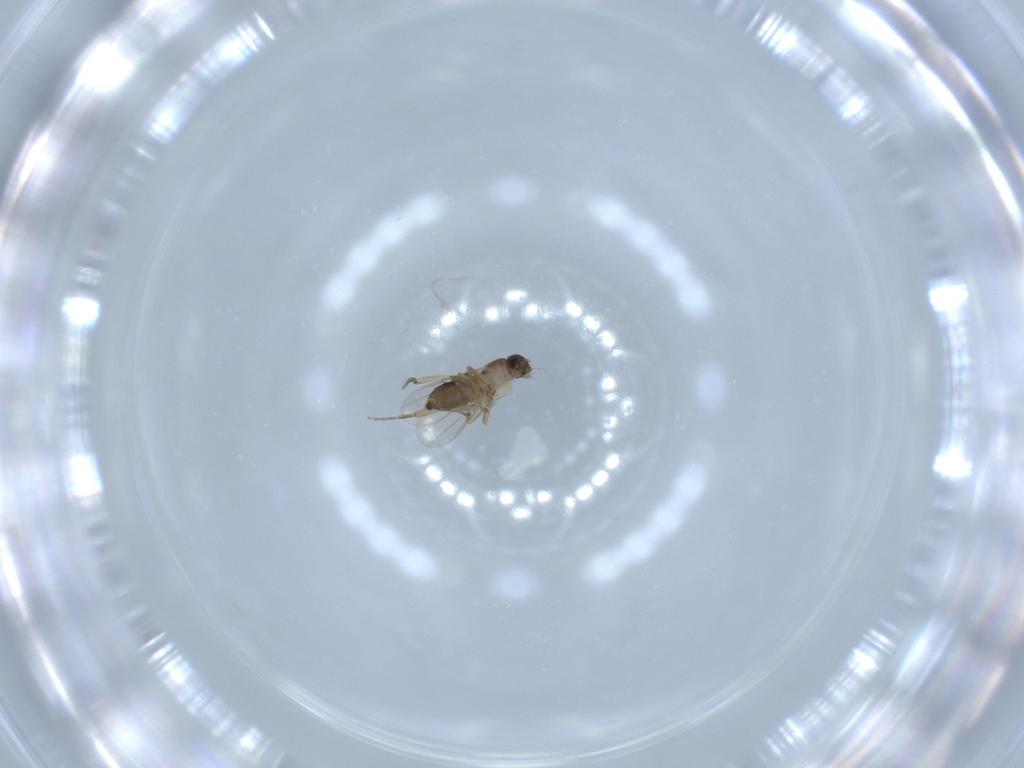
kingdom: Animalia
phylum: Arthropoda
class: Insecta
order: Diptera
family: Phoridae
